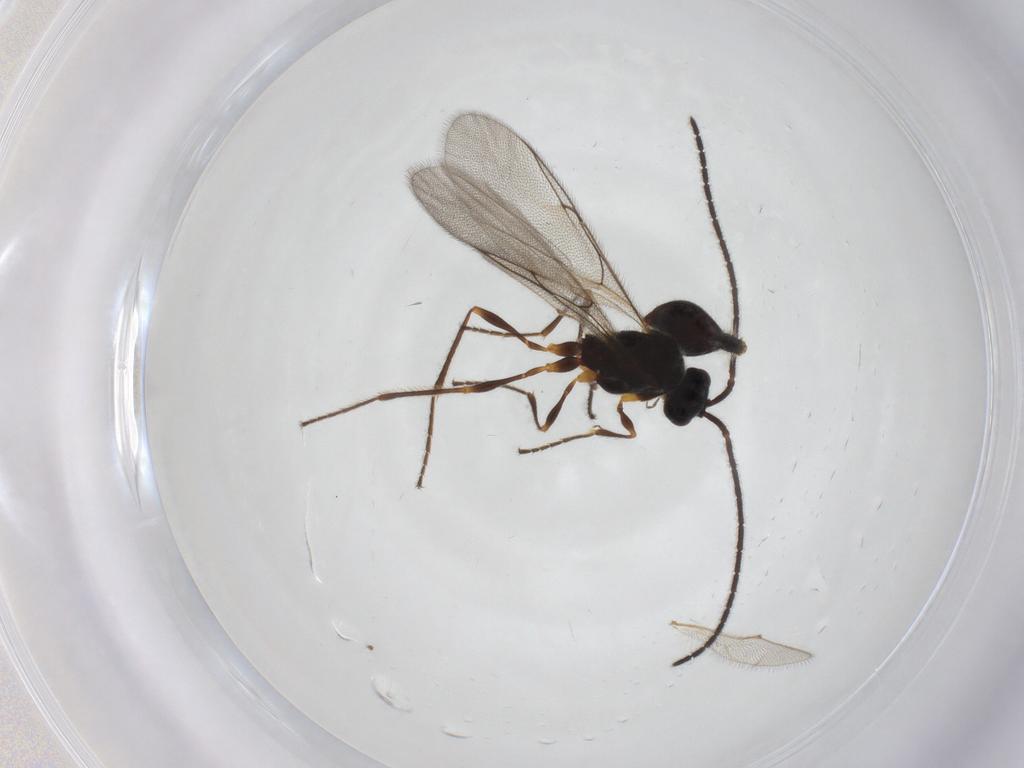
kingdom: Animalia
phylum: Arthropoda
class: Insecta
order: Hymenoptera
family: Diapriidae
